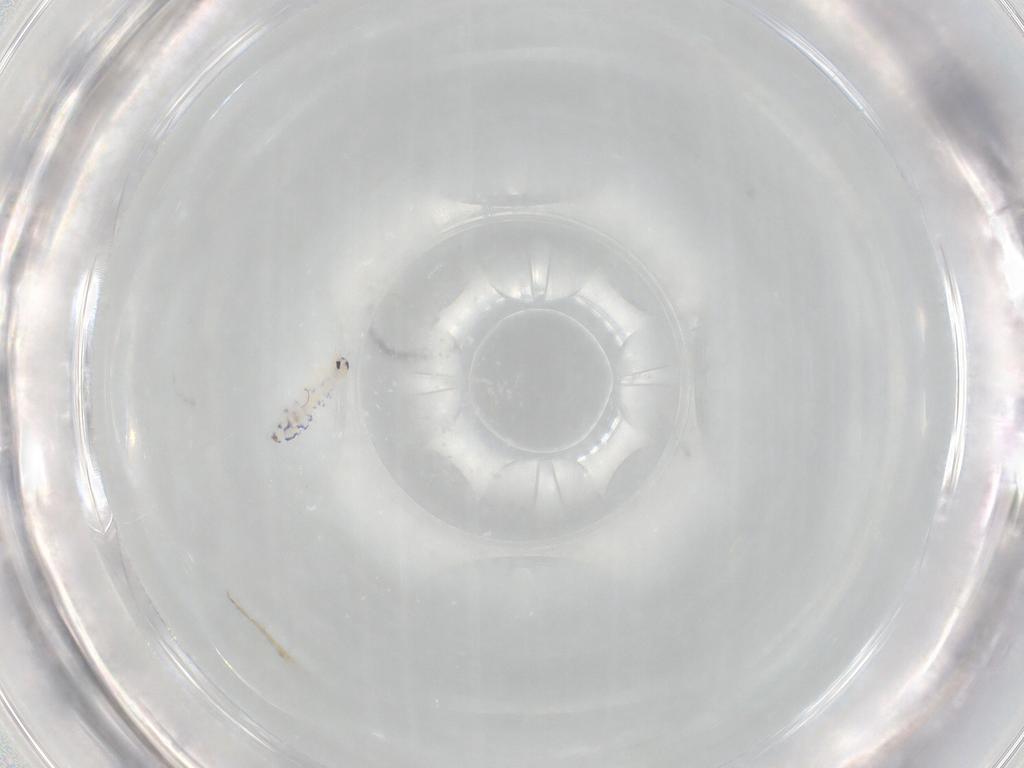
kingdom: Animalia
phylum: Arthropoda
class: Collembola
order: Entomobryomorpha
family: Entomobryidae
